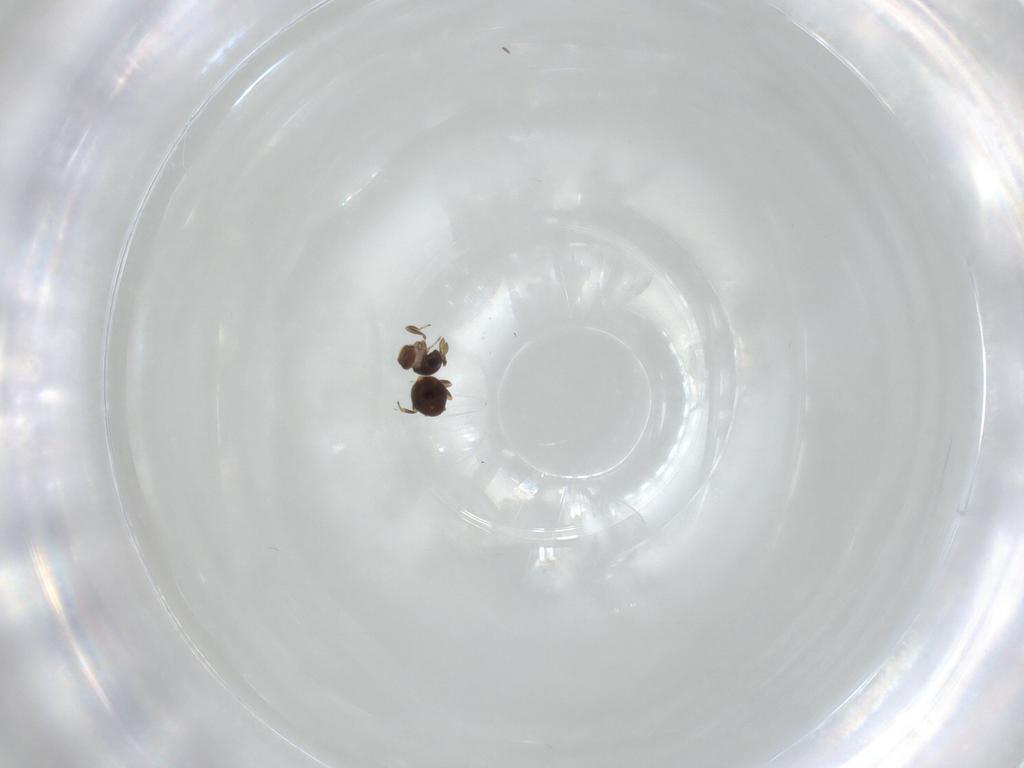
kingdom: Animalia
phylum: Arthropoda
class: Insecta
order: Hymenoptera
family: Scelionidae
